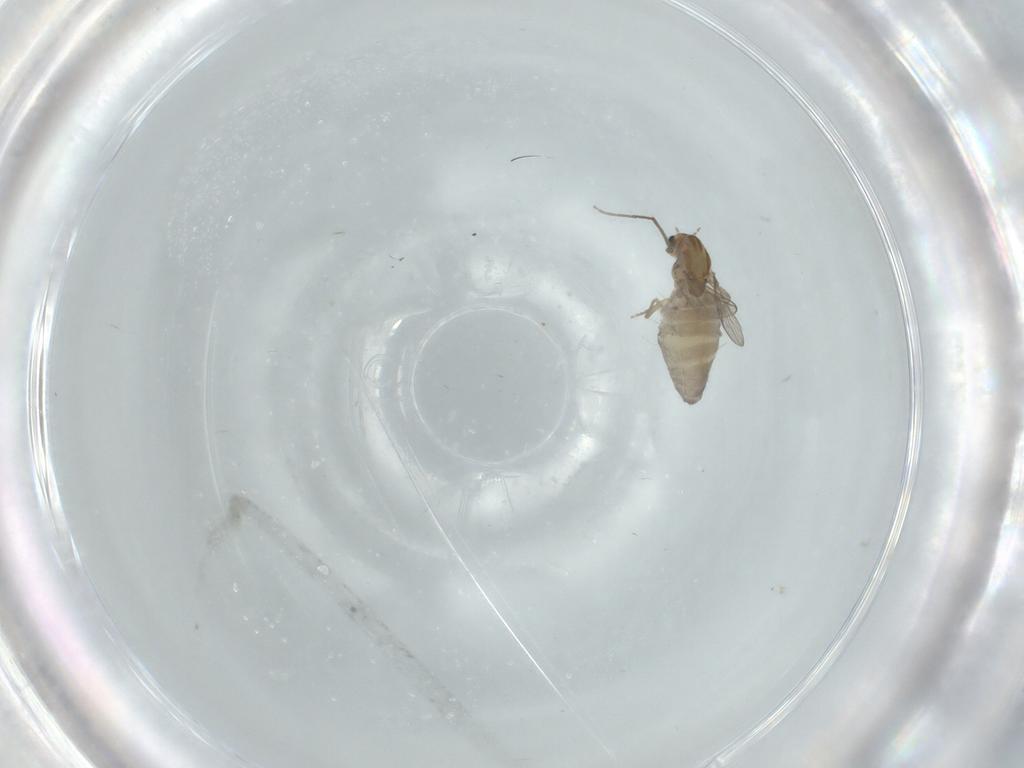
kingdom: Animalia
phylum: Arthropoda
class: Insecta
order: Diptera
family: Chironomidae
